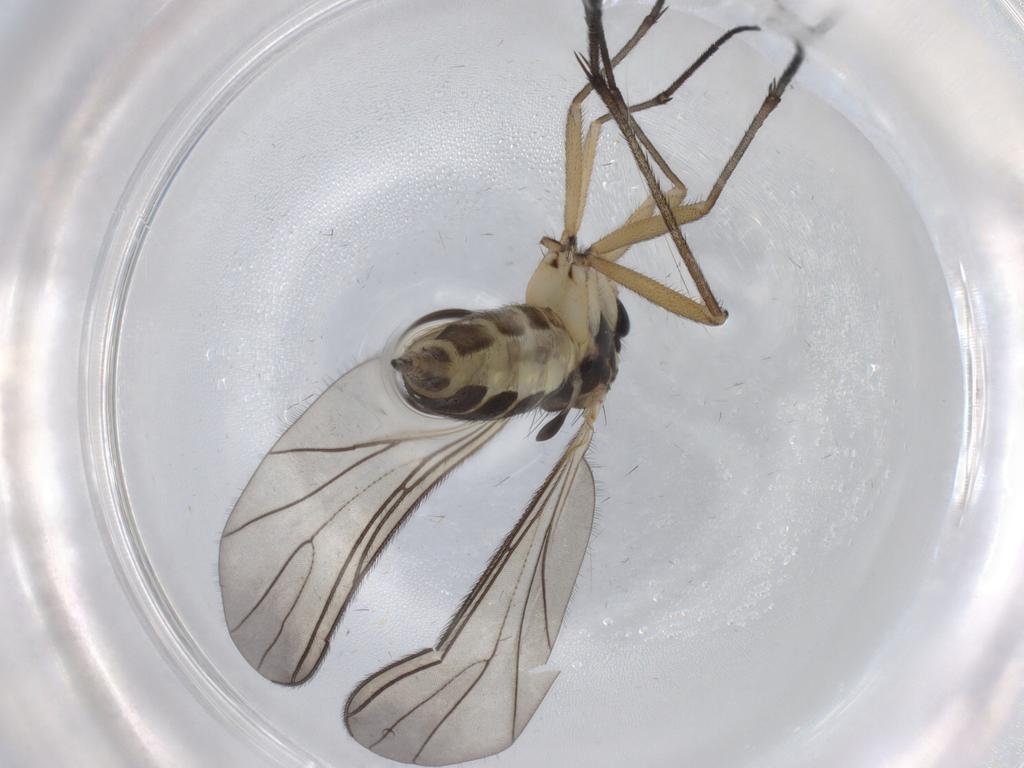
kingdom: Animalia
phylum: Arthropoda
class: Insecta
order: Diptera
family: Sciaridae
